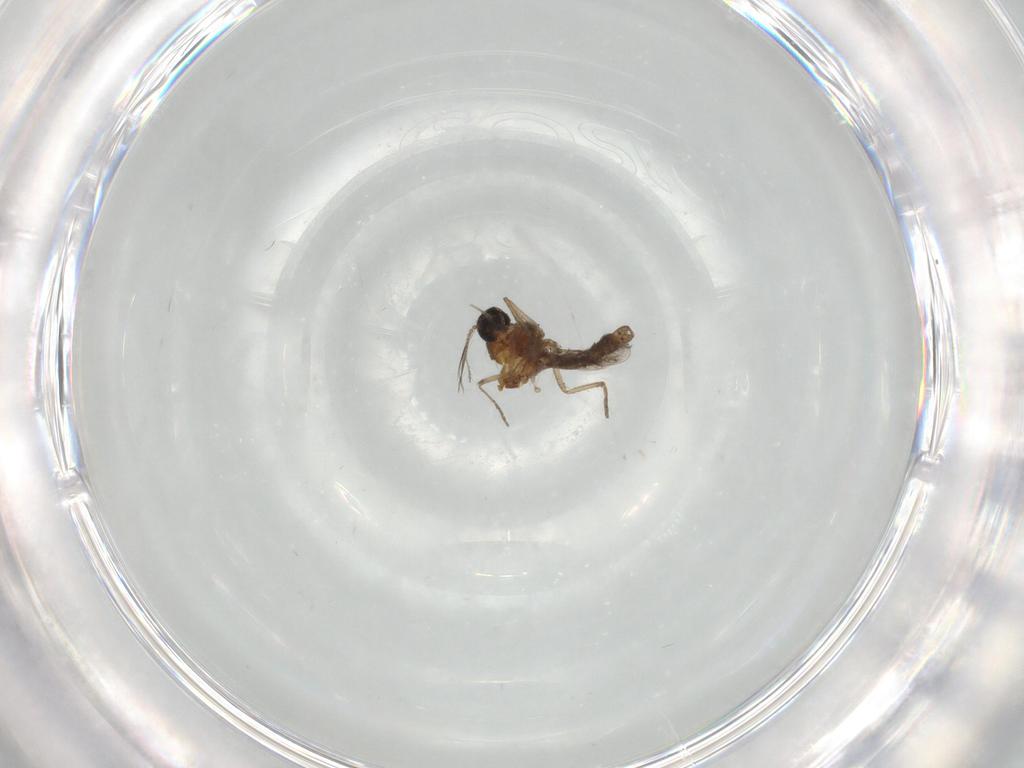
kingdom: Animalia
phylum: Arthropoda
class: Insecta
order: Diptera
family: Chironomidae
